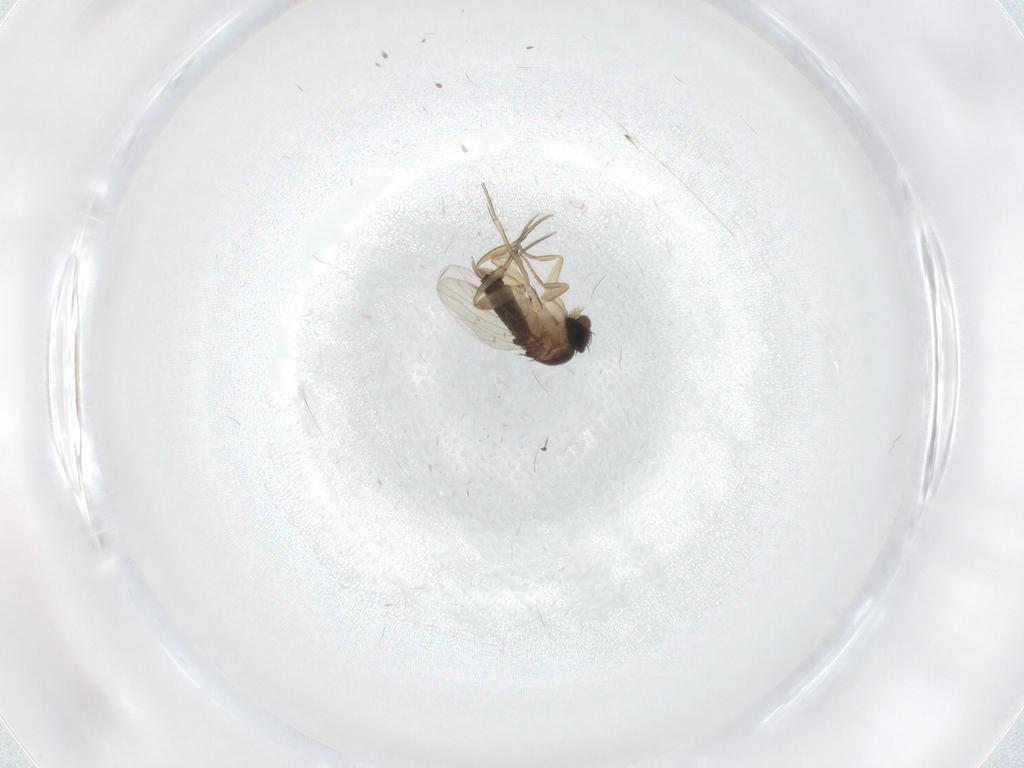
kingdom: Animalia
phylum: Arthropoda
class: Insecta
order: Diptera
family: Phoridae
